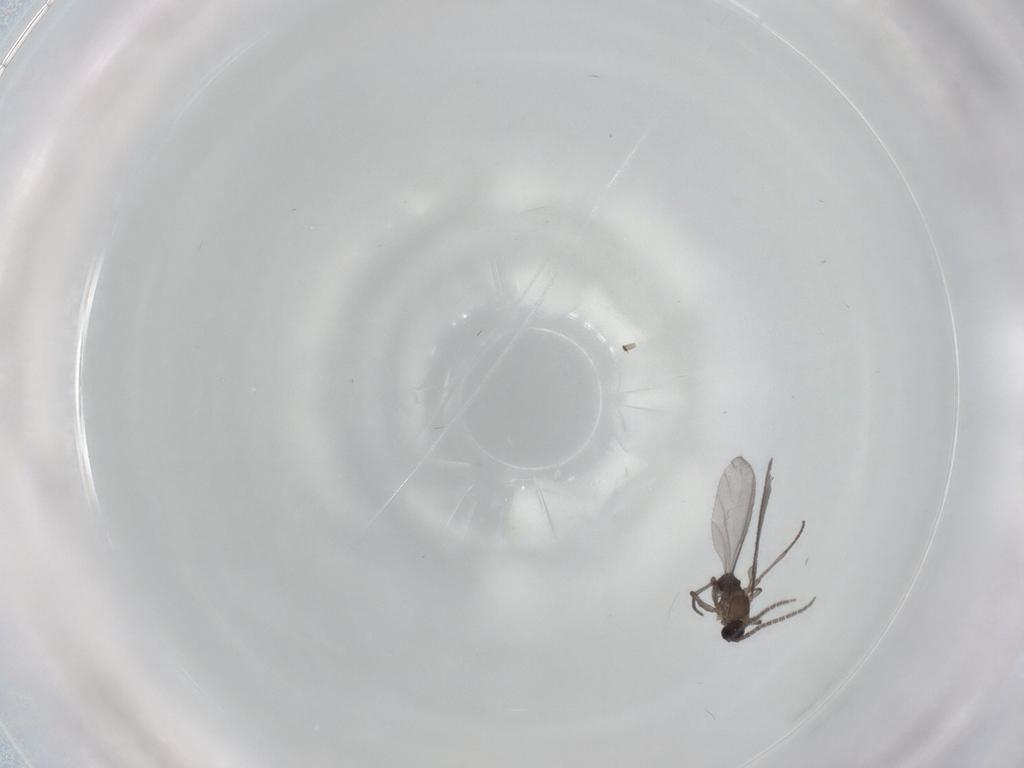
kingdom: Animalia
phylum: Arthropoda
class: Insecta
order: Diptera
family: Sciaridae
